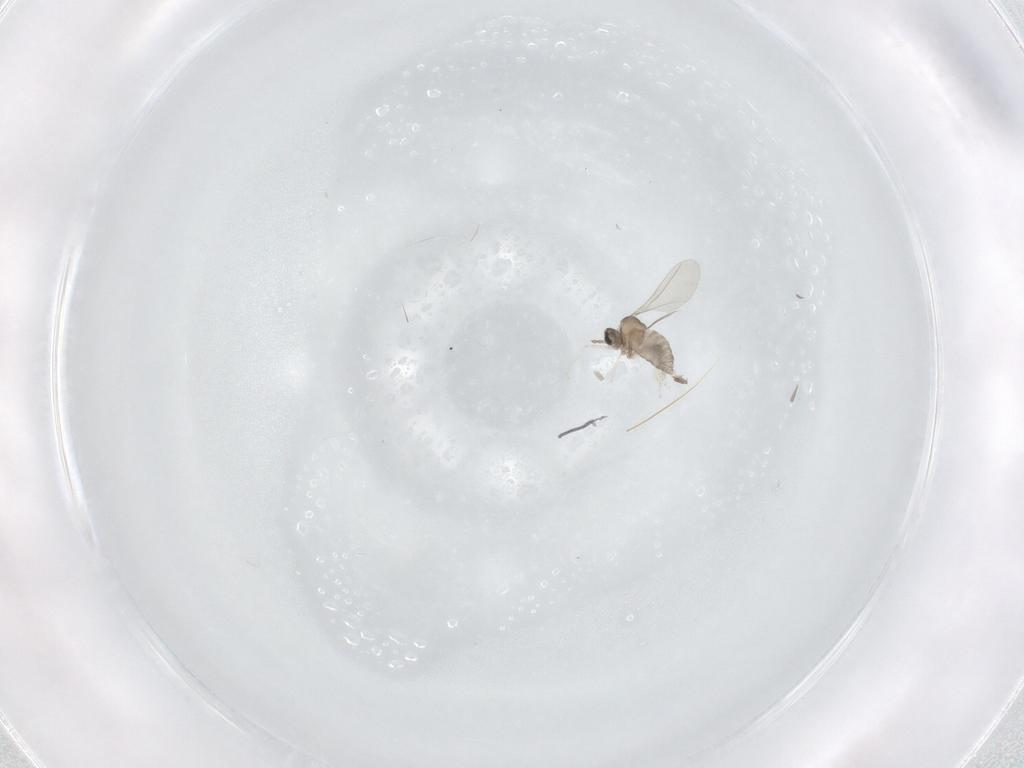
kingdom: Animalia
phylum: Arthropoda
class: Insecta
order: Diptera
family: Cecidomyiidae
